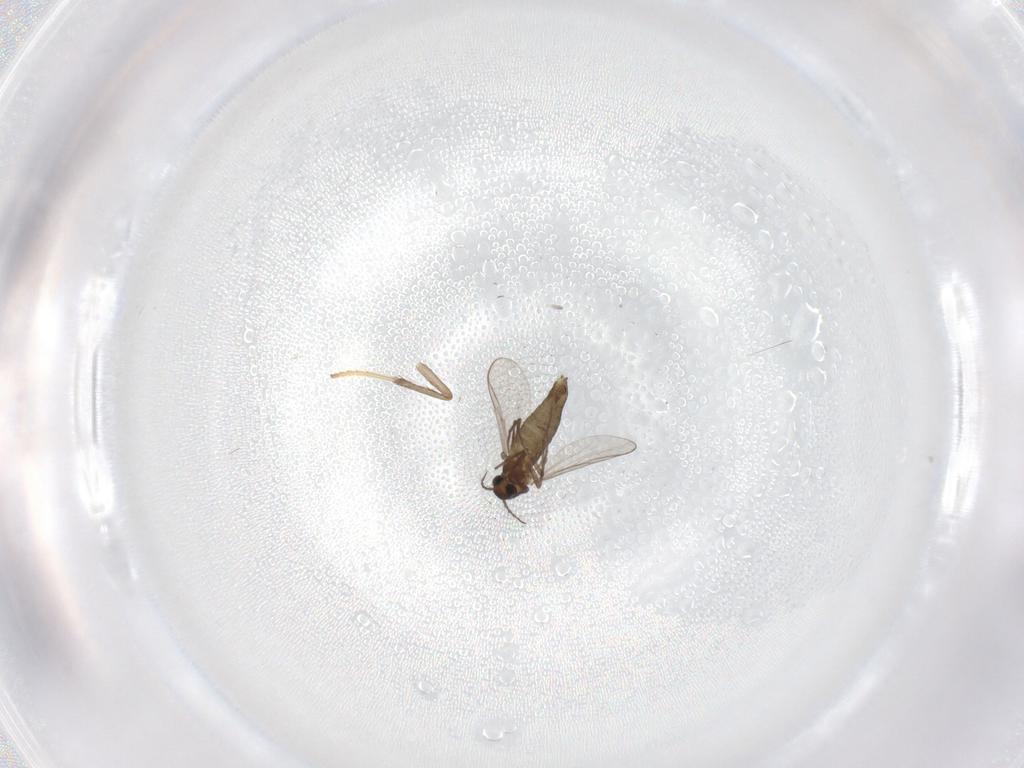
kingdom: Animalia
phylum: Arthropoda
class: Insecta
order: Diptera
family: Chironomidae
